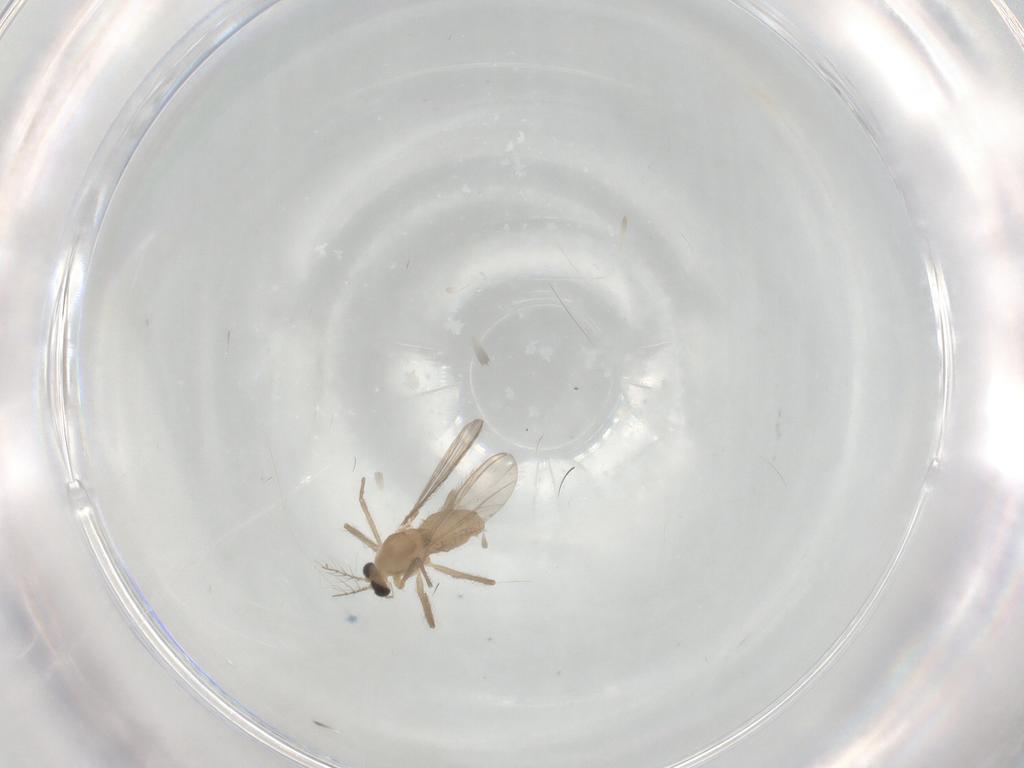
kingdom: Animalia
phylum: Arthropoda
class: Insecta
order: Diptera
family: Chironomidae
